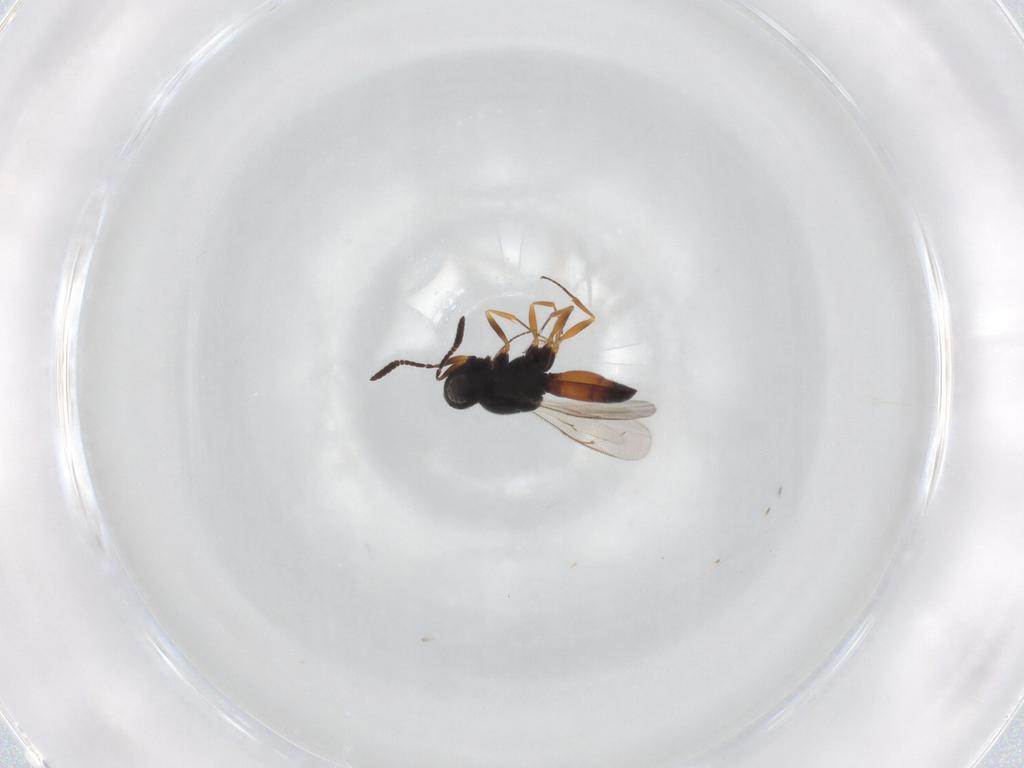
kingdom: Animalia
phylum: Arthropoda
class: Insecta
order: Hymenoptera
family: Scelionidae
